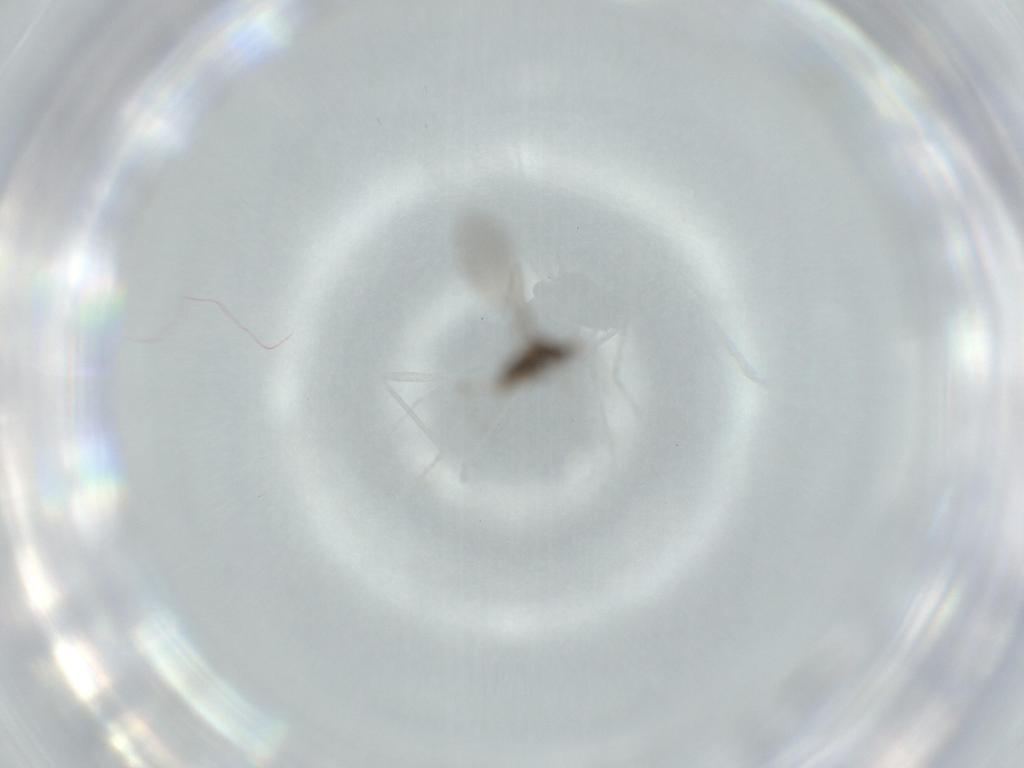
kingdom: Animalia
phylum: Arthropoda
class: Insecta
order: Diptera
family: Cecidomyiidae
